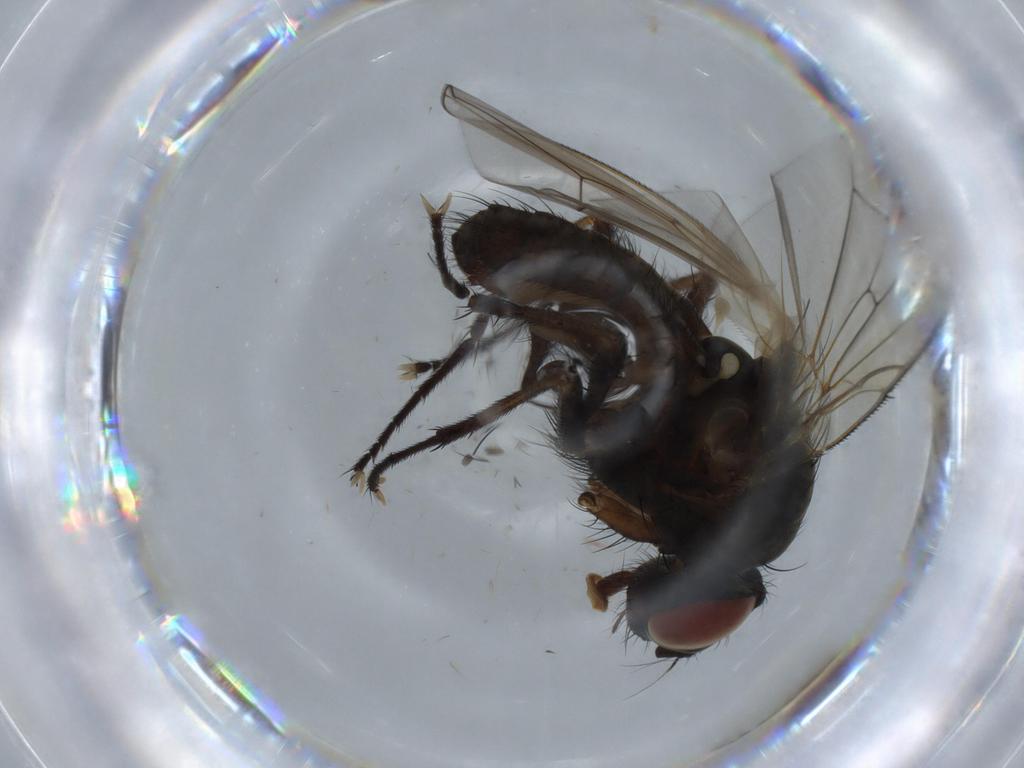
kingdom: Animalia
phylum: Arthropoda
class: Insecta
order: Diptera
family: Anthomyiidae
